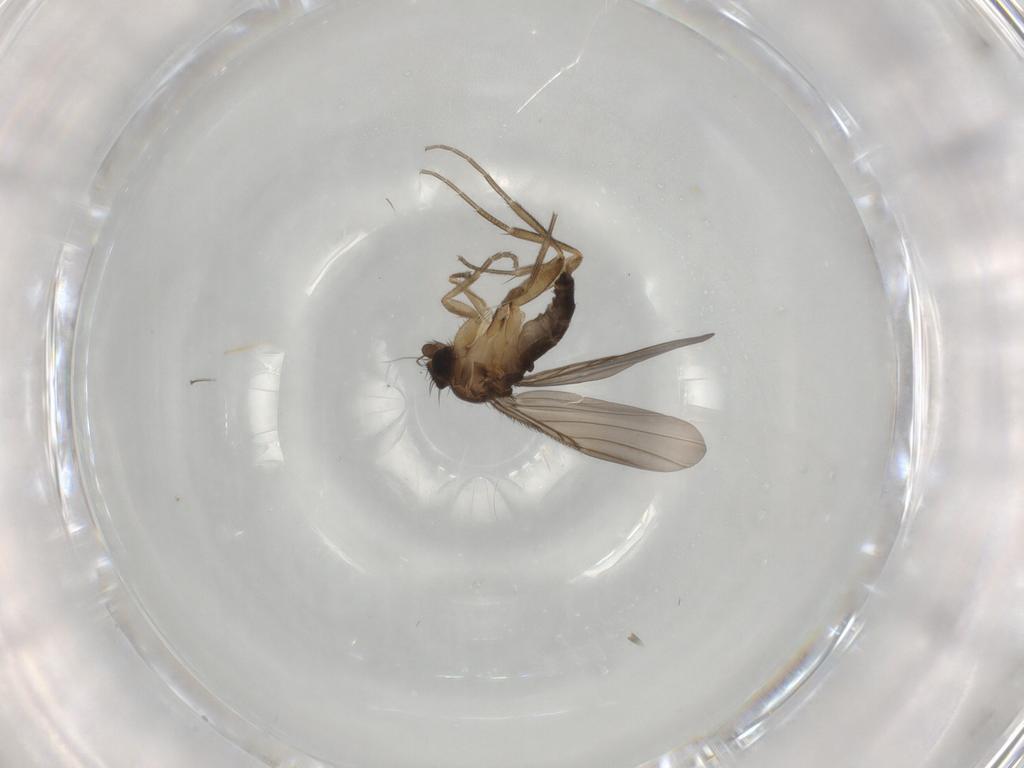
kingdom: Animalia
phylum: Arthropoda
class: Insecta
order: Diptera
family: Phoridae
